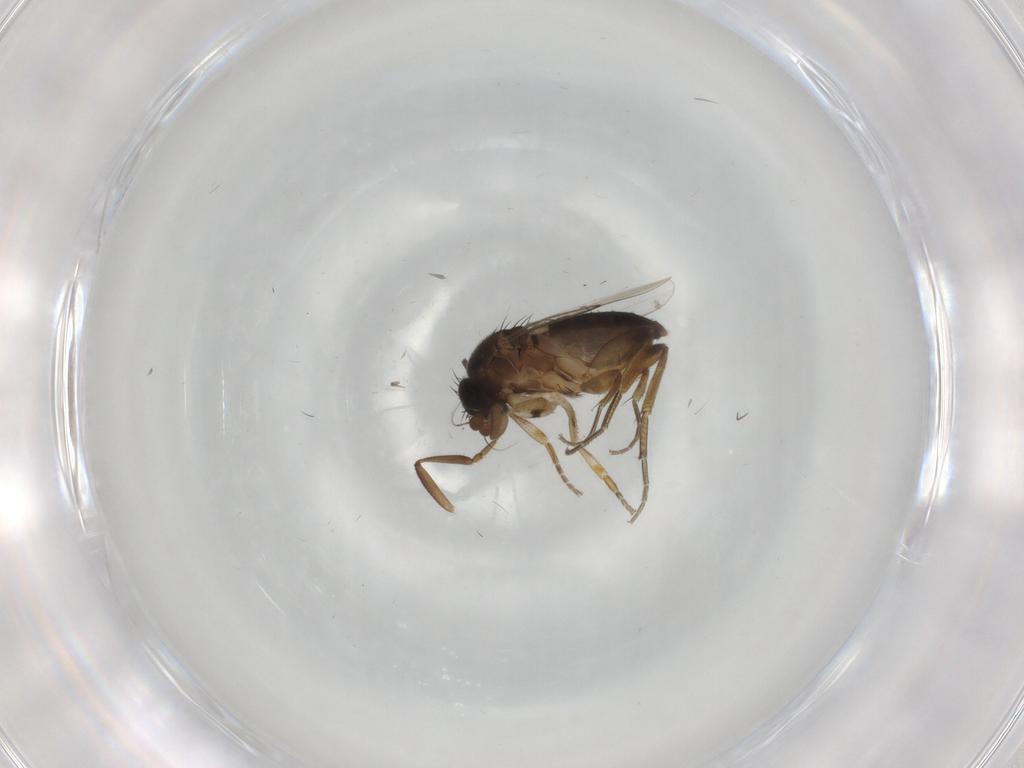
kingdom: Animalia
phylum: Arthropoda
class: Insecta
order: Diptera
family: Phoridae
